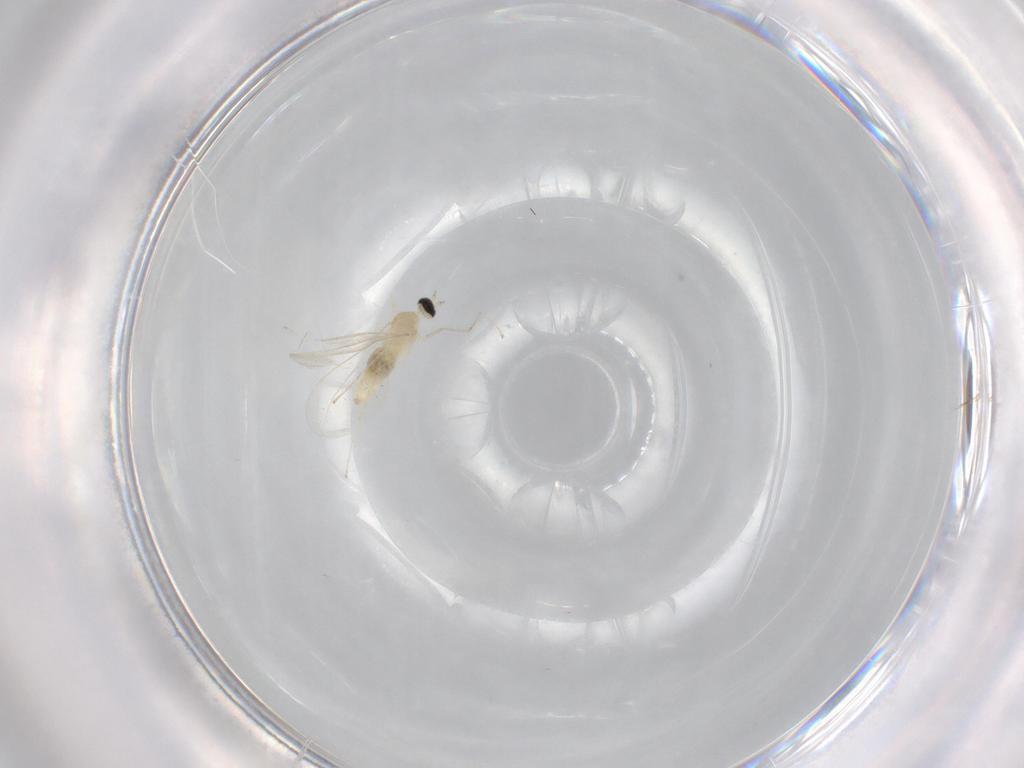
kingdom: Animalia
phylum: Arthropoda
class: Insecta
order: Diptera
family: Cecidomyiidae
